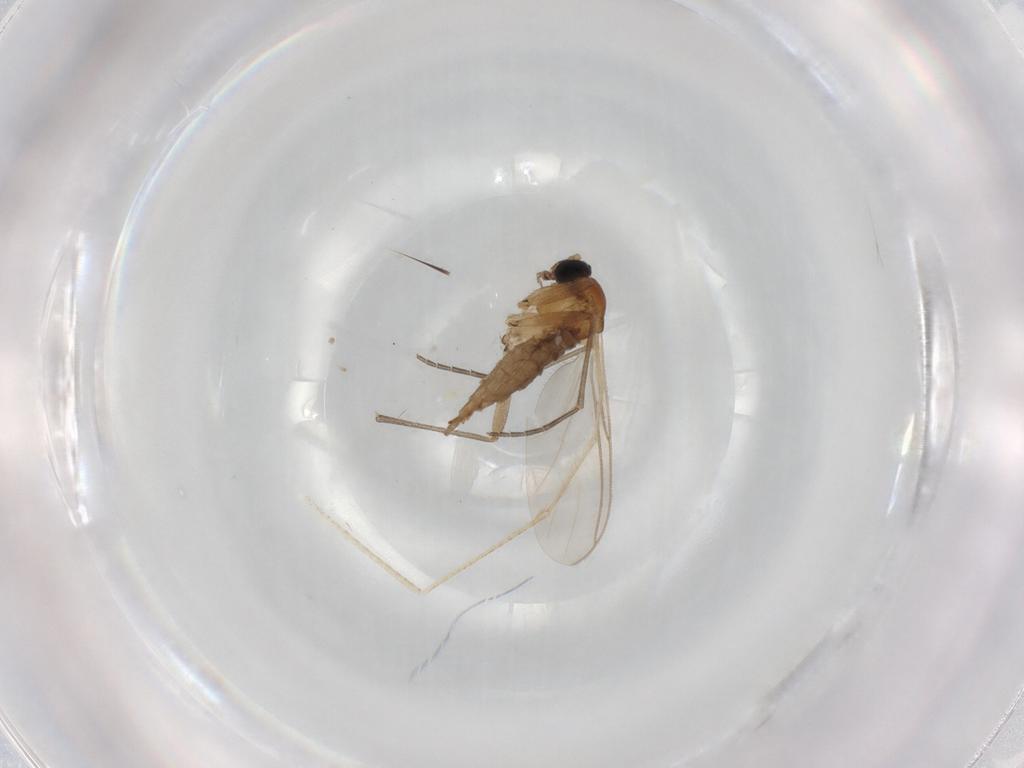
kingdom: Animalia
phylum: Arthropoda
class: Insecta
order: Diptera
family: Sciaridae
